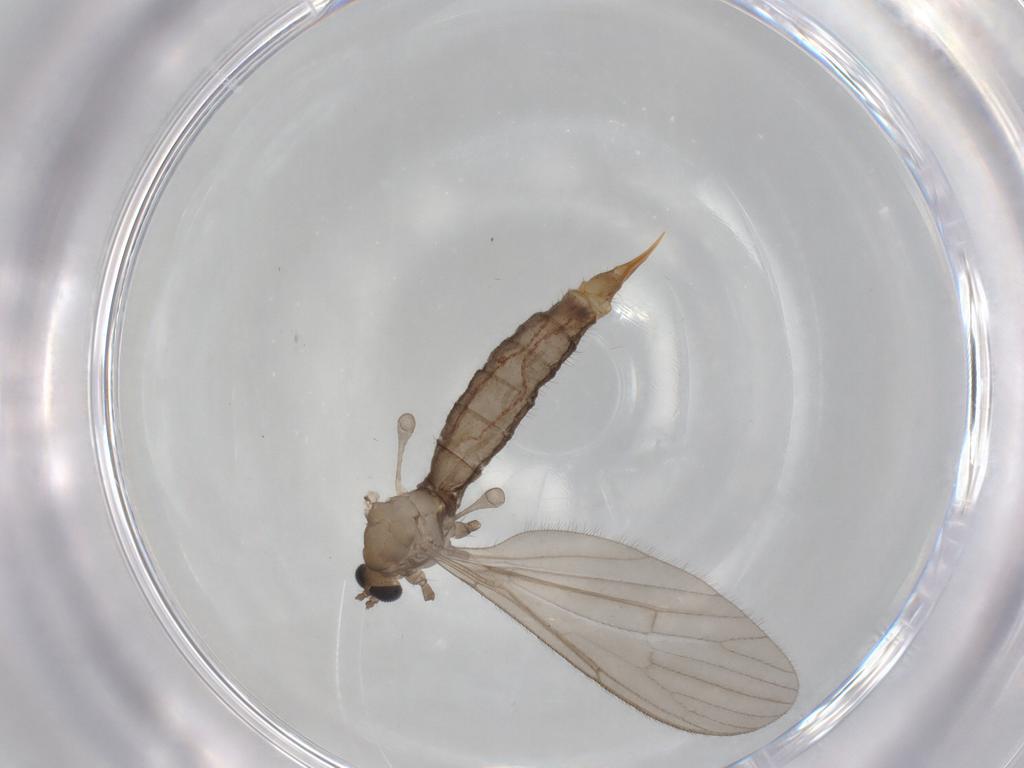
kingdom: Animalia
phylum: Arthropoda
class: Insecta
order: Diptera
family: Limoniidae
